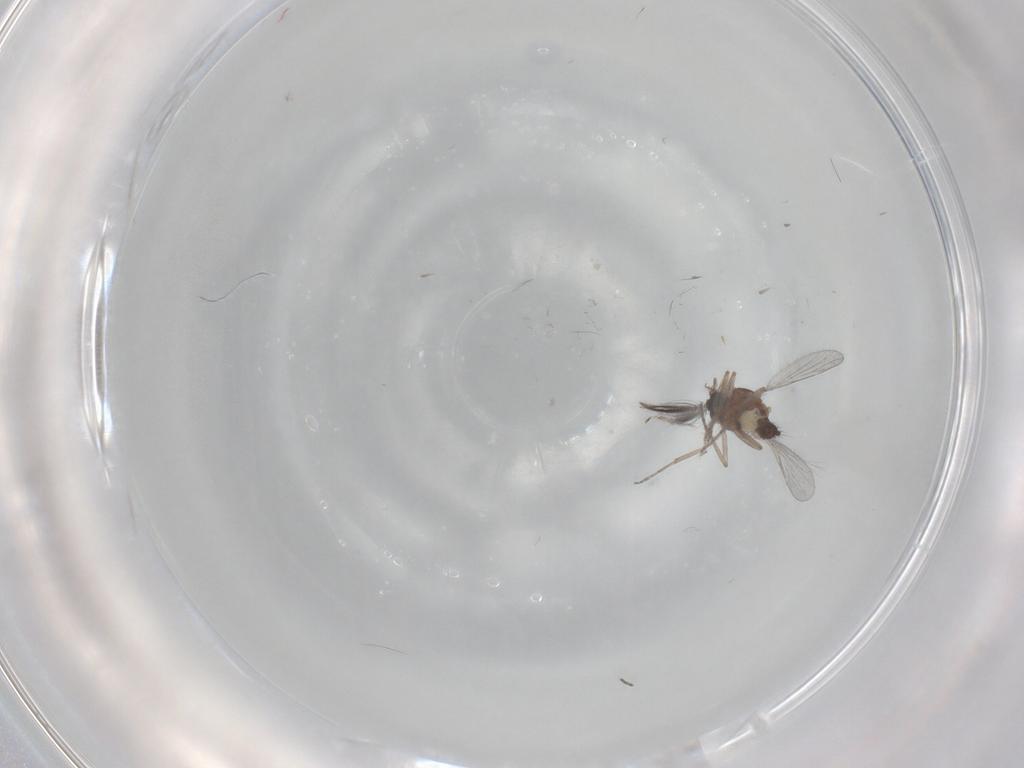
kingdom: Animalia
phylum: Arthropoda
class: Insecta
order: Diptera
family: Ceratopogonidae
